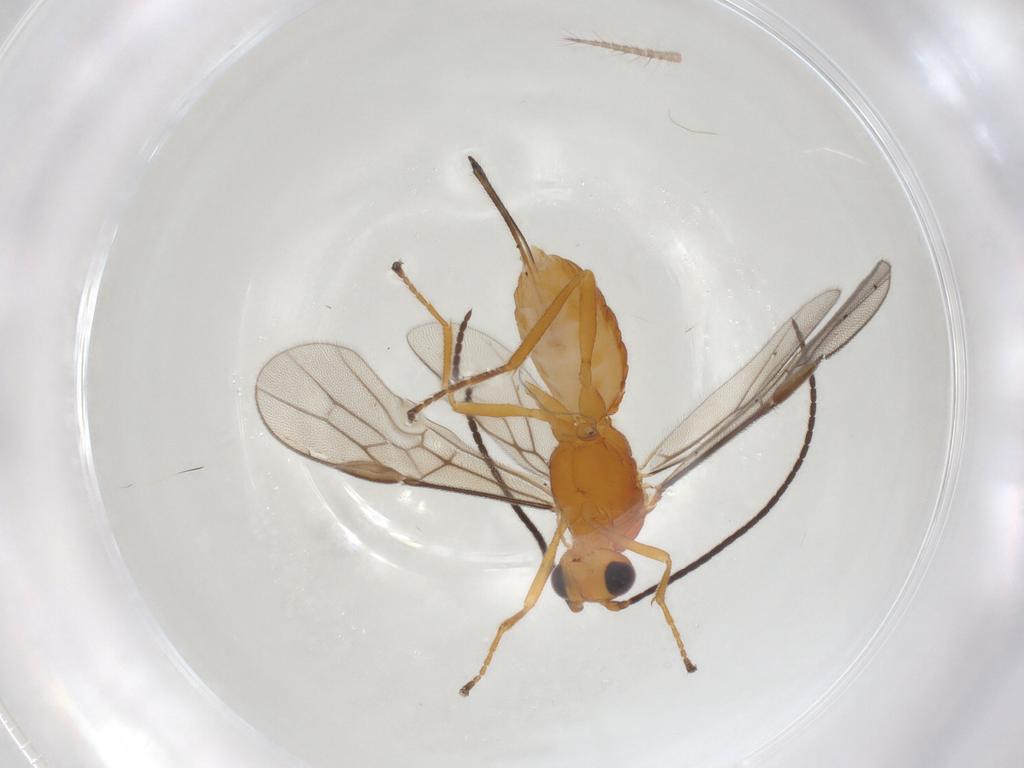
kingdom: Animalia
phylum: Arthropoda
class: Insecta
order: Hymenoptera
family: Braconidae
